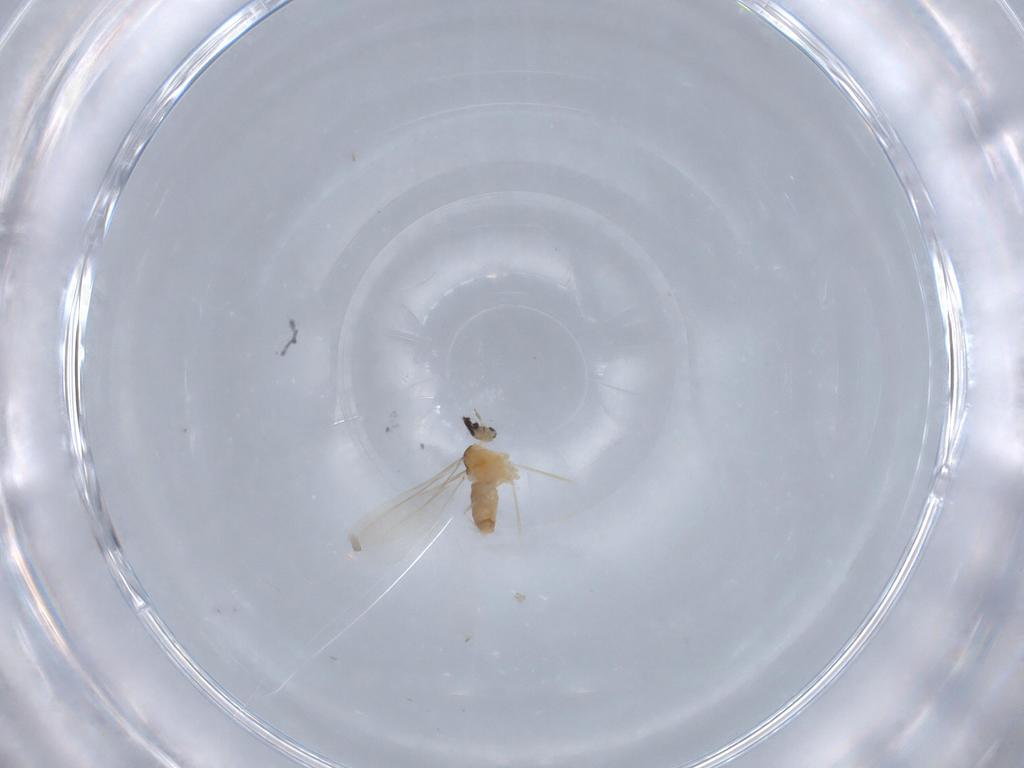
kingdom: Animalia
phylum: Arthropoda
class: Insecta
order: Diptera
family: Cecidomyiidae
